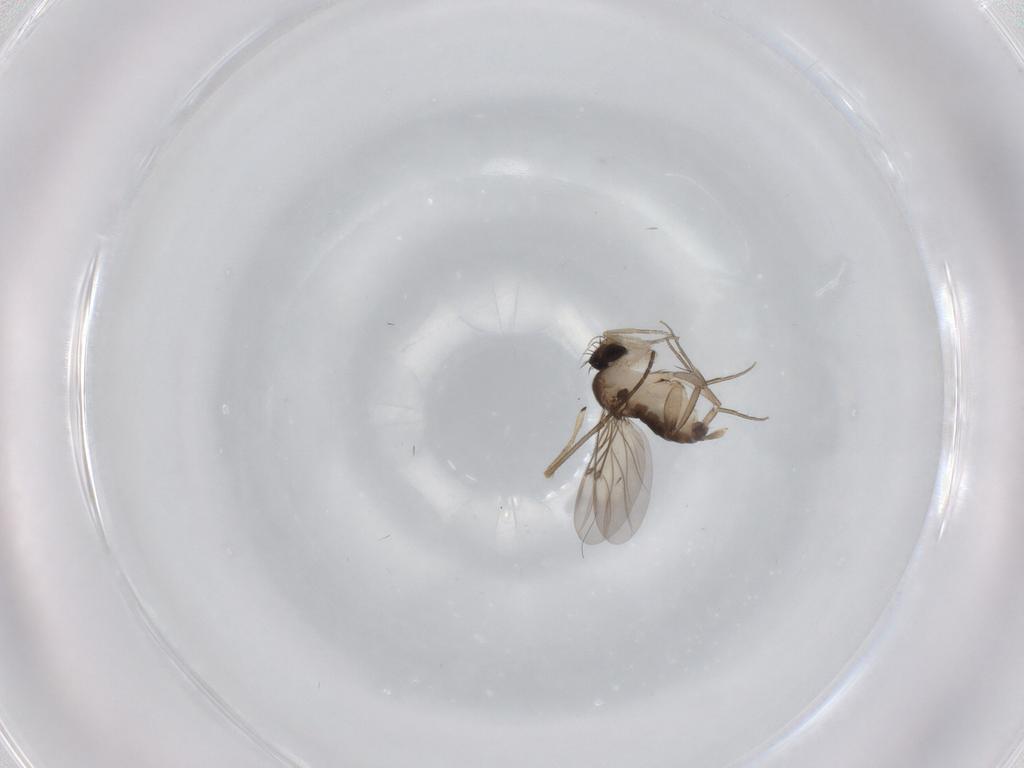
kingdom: Animalia
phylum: Arthropoda
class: Insecta
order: Diptera
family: Phoridae
